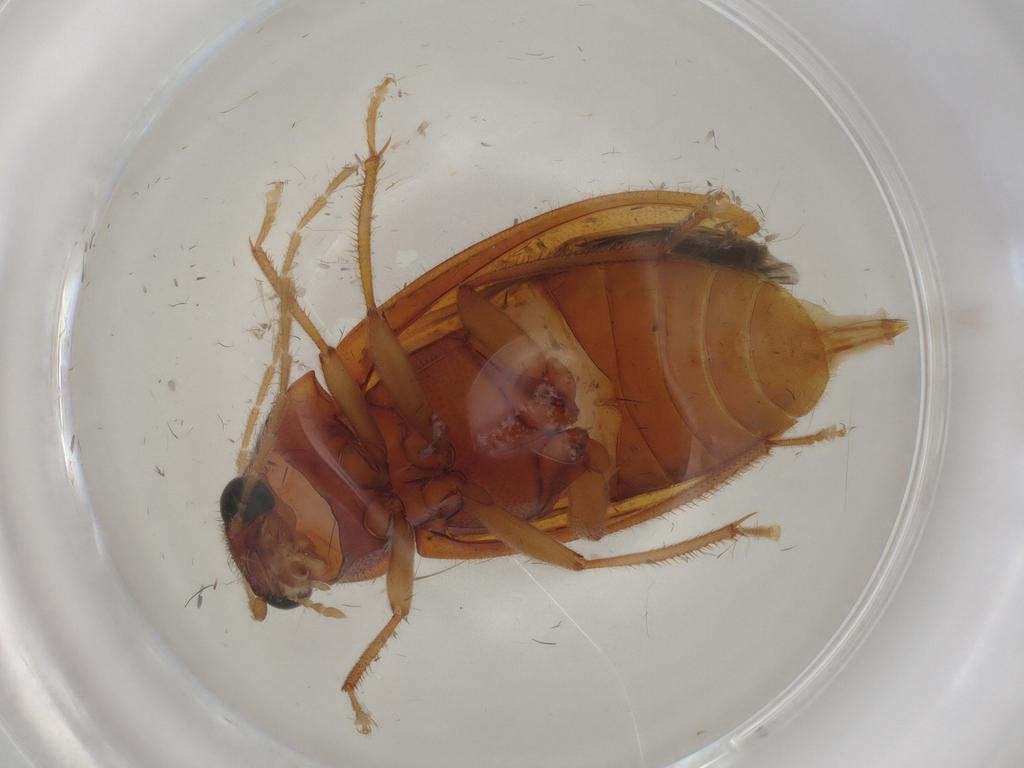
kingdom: Animalia
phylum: Arthropoda
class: Insecta
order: Coleoptera
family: Ptilodactylidae
